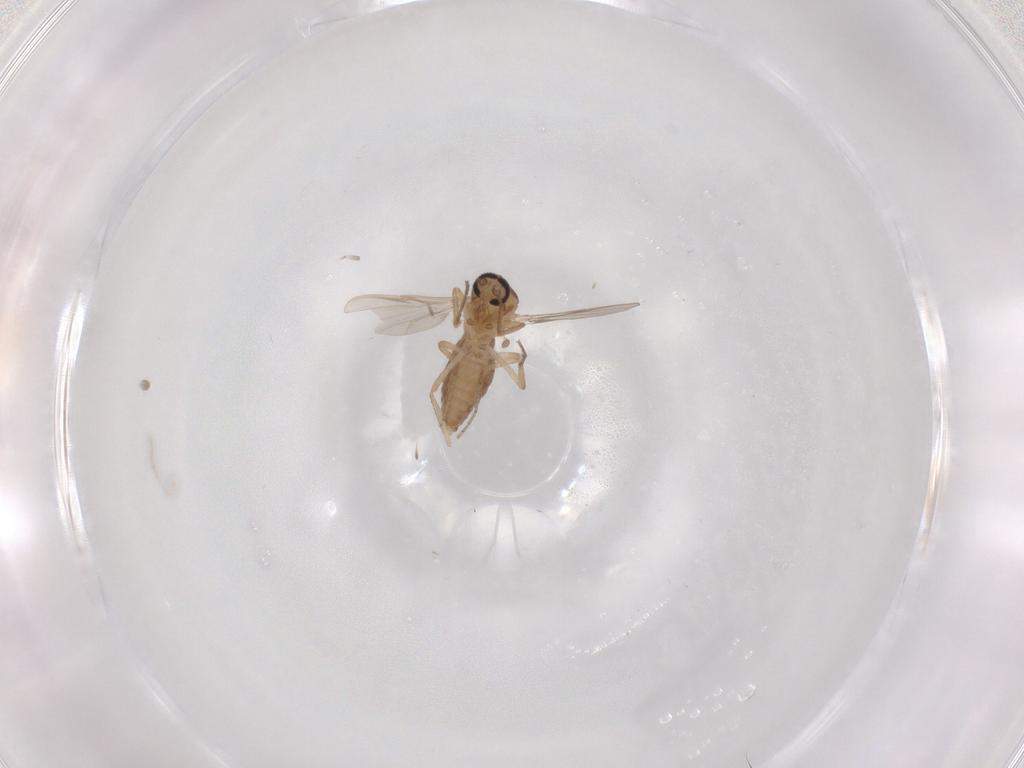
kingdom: Animalia
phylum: Arthropoda
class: Insecta
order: Diptera
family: Ceratopogonidae
